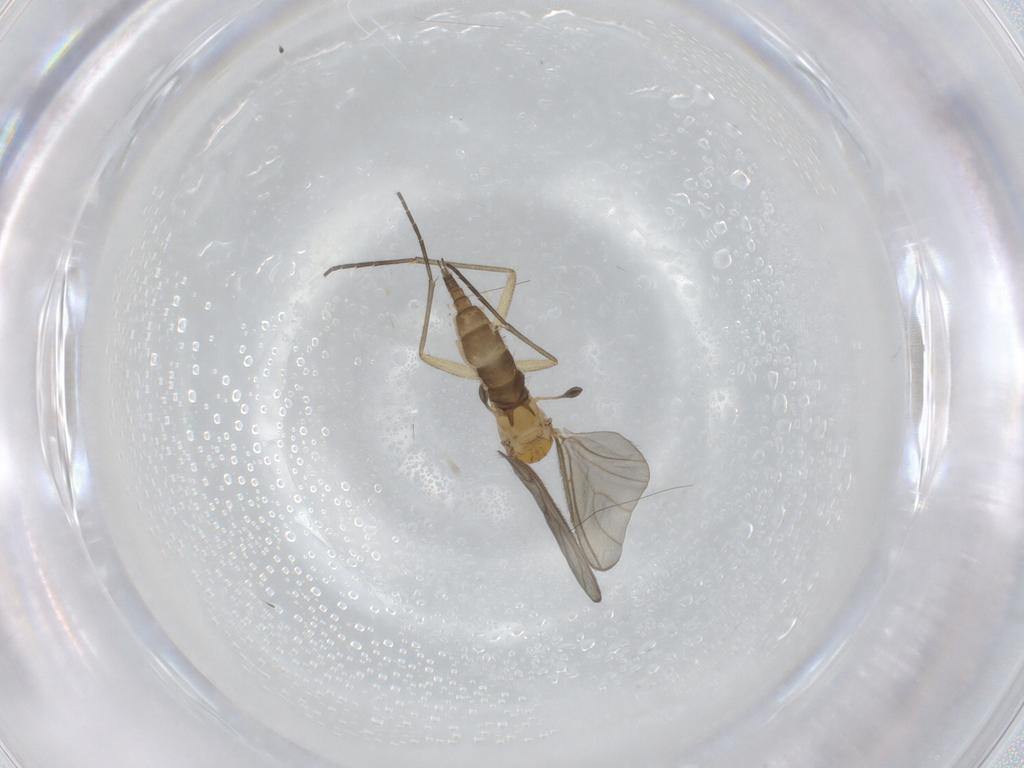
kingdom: Animalia
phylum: Arthropoda
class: Insecta
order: Diptera
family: Sciaridae
